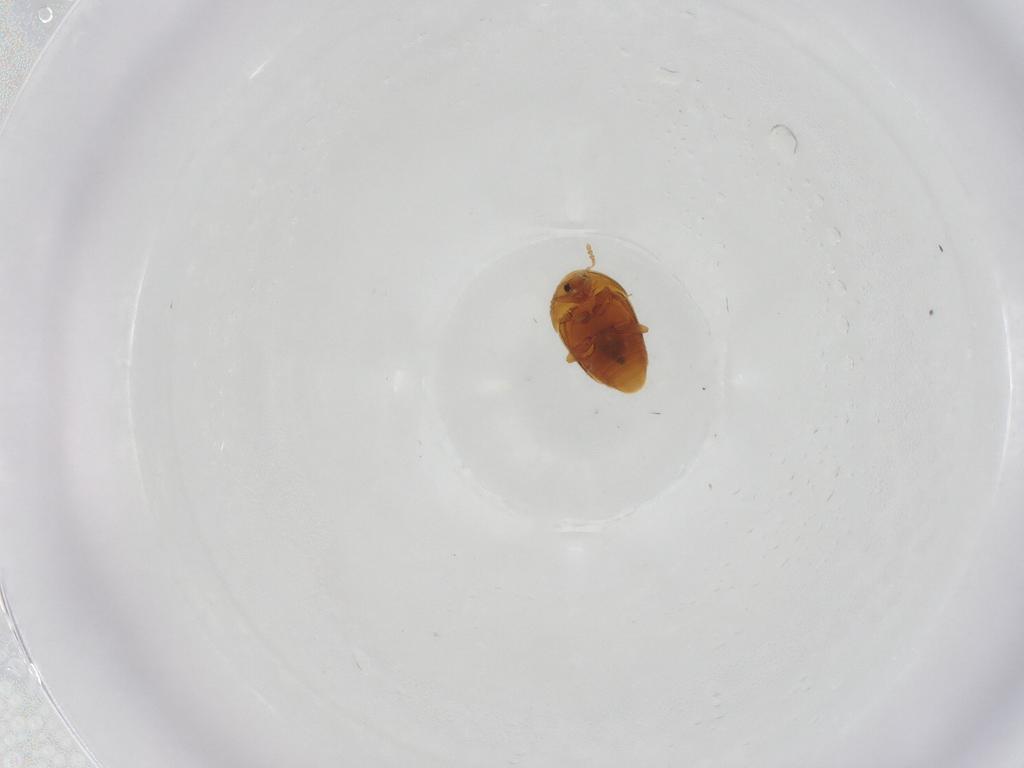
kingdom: Animalia
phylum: Arthropoda
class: Insecta
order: Coleoptera
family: Corylophidae
